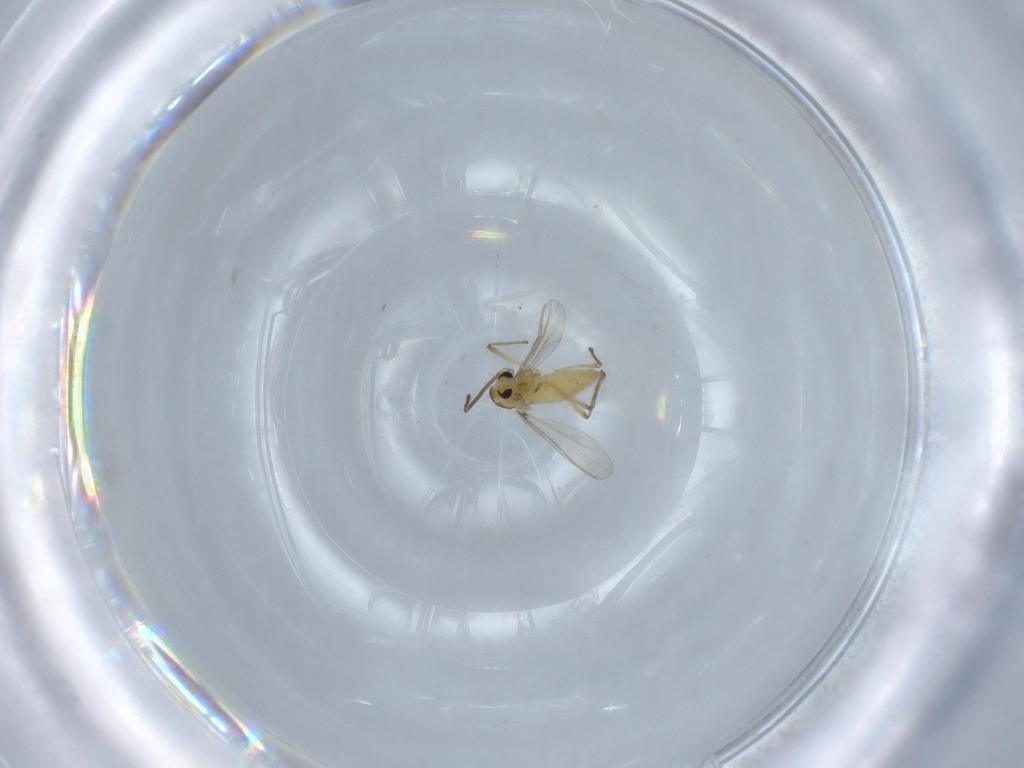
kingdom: Animalia
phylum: Arthropoda
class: Insecta
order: Diptera
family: Chironomidae
